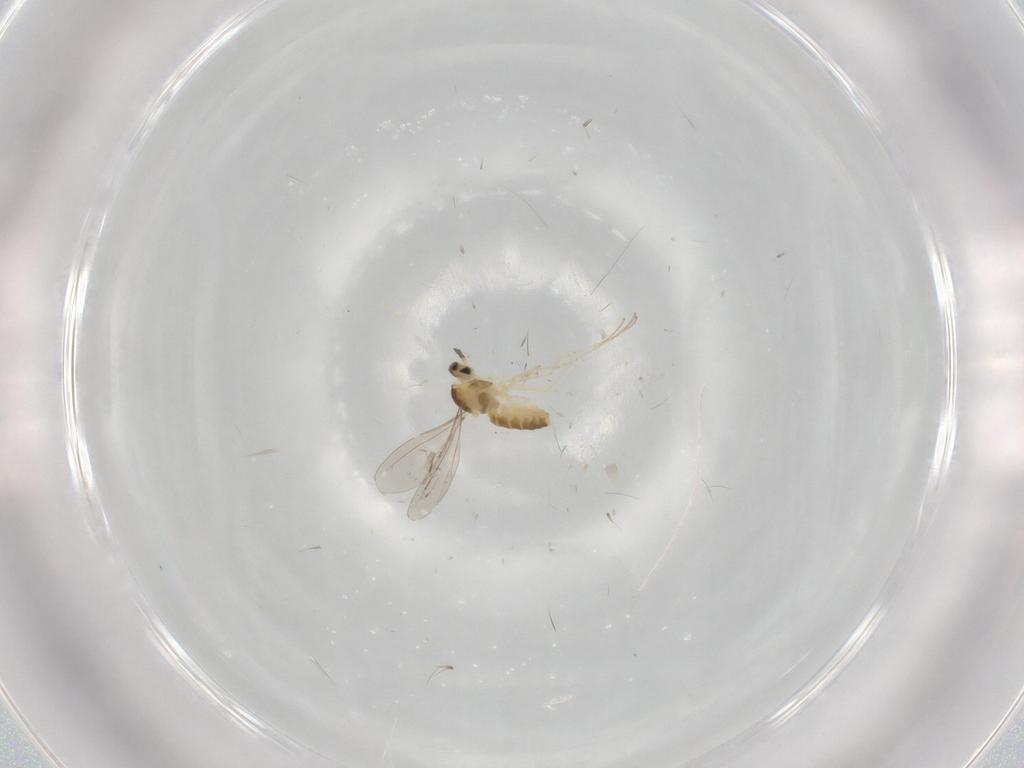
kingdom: Animalia
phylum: Arthropoda
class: Insecta
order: Diptera
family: Cecidomyiidae
